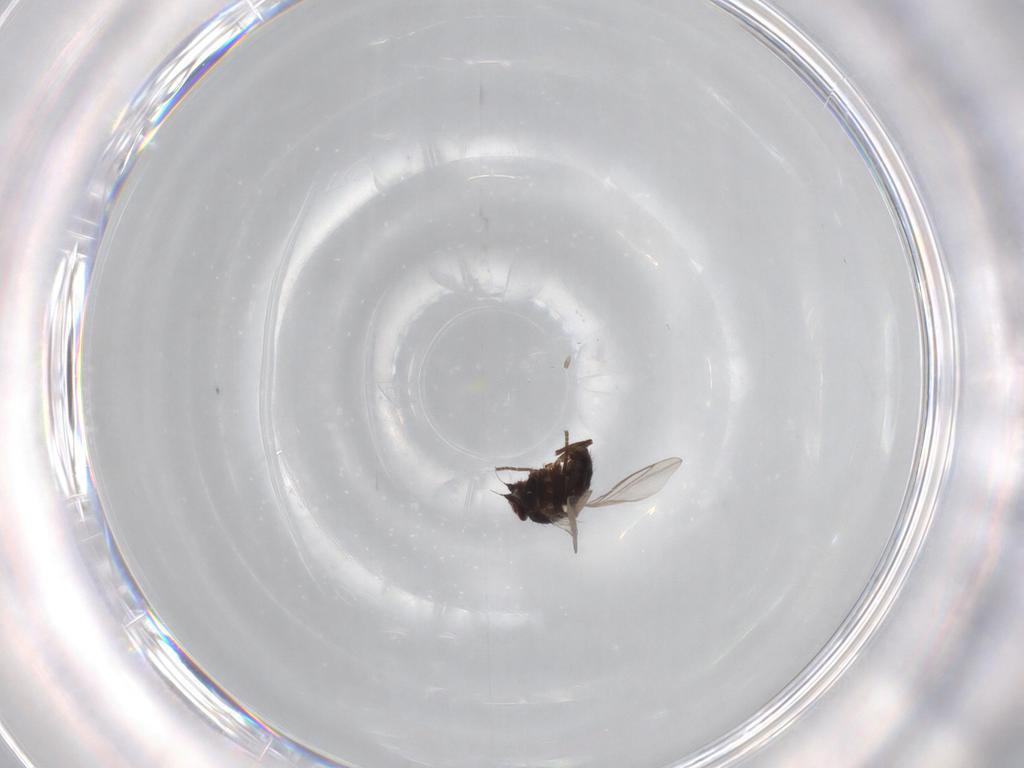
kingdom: Animalia
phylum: Arthropoda
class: Insecta
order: Diptera
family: Agromyzidae
